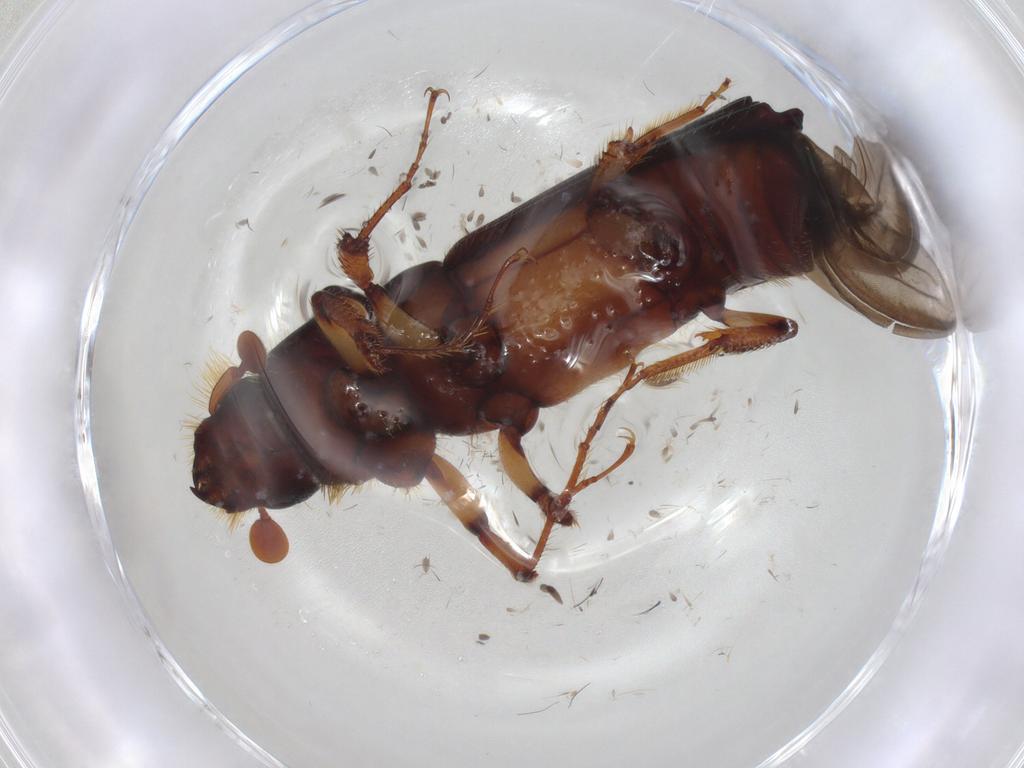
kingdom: Animalia
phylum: Arthropoda
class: Insecta
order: Coleoptera
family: Curculionidae
